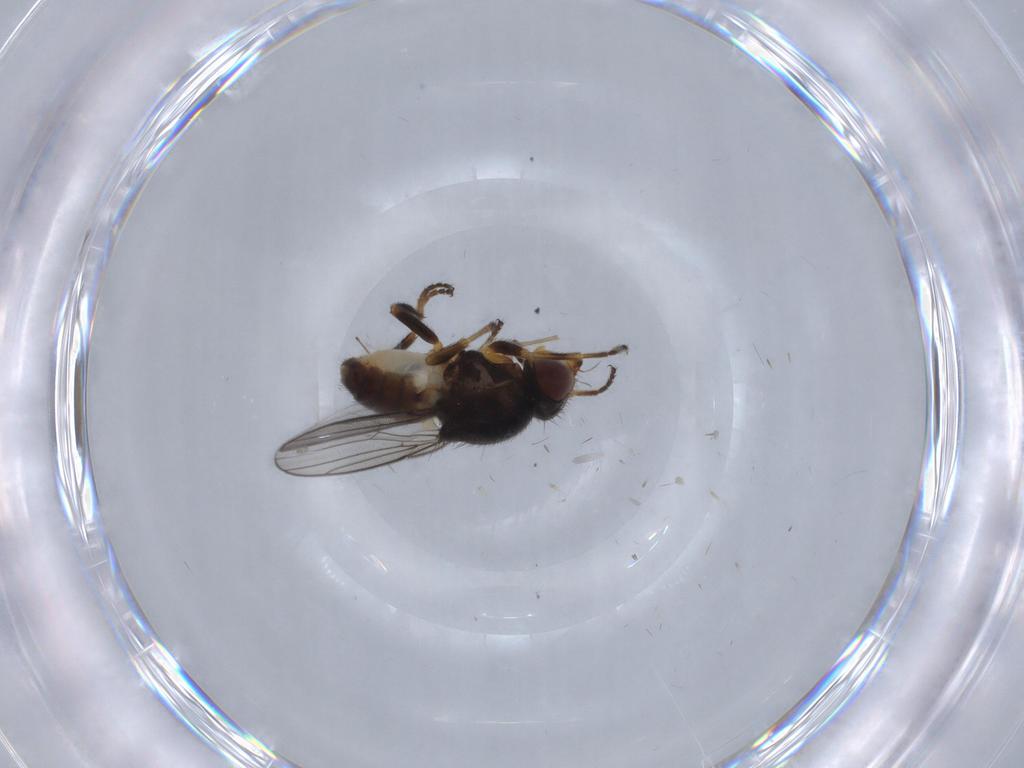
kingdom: Animalia
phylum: Arthropoda
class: Insecta
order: Diptera
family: Chloropidae
